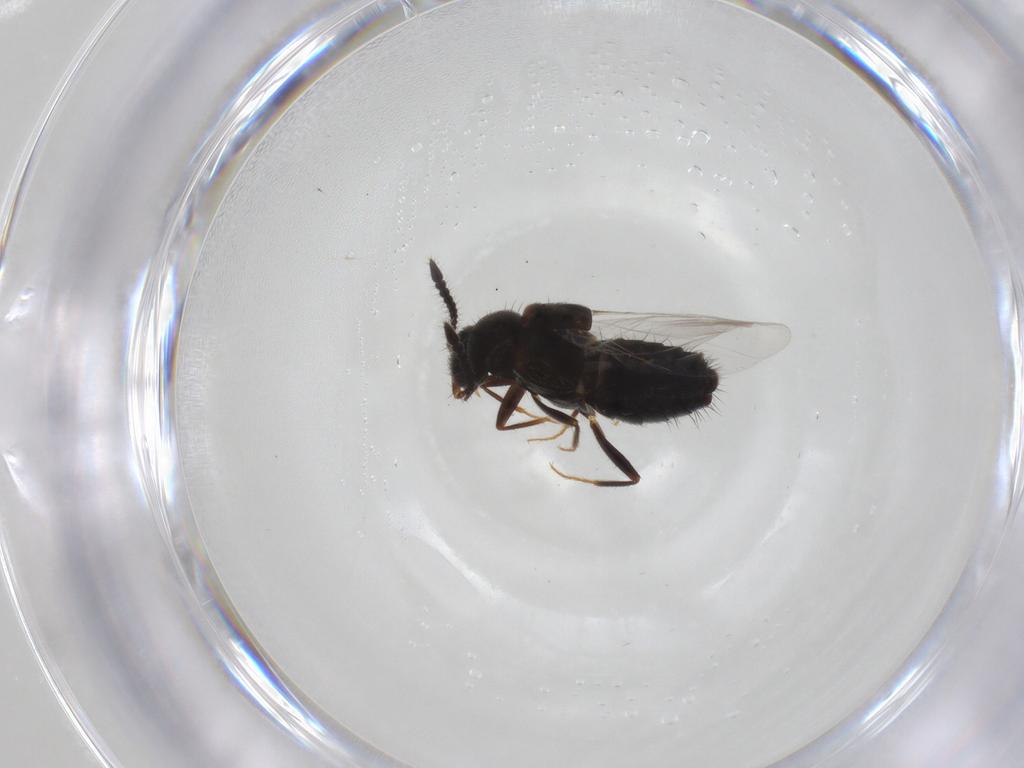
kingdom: Animalia
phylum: Arthropoda
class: Insecta
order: Coleoptera
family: Staphylinidae
